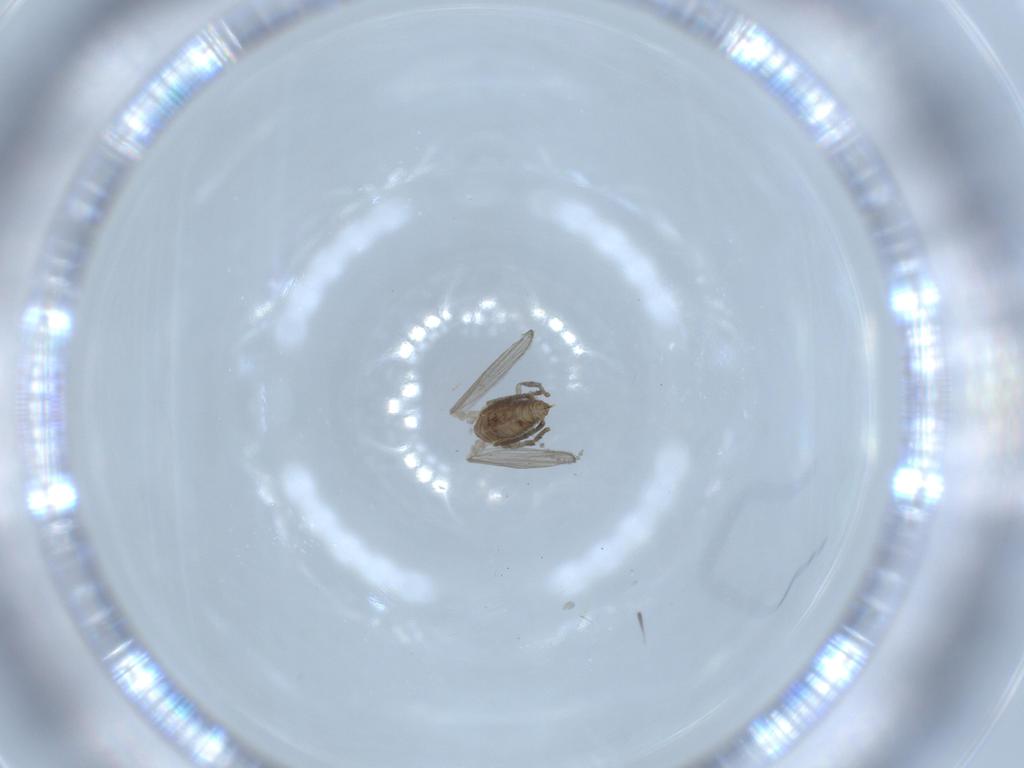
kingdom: Animalia
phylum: Arthropoda
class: Insecta
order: Diptera
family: Psychodidae
